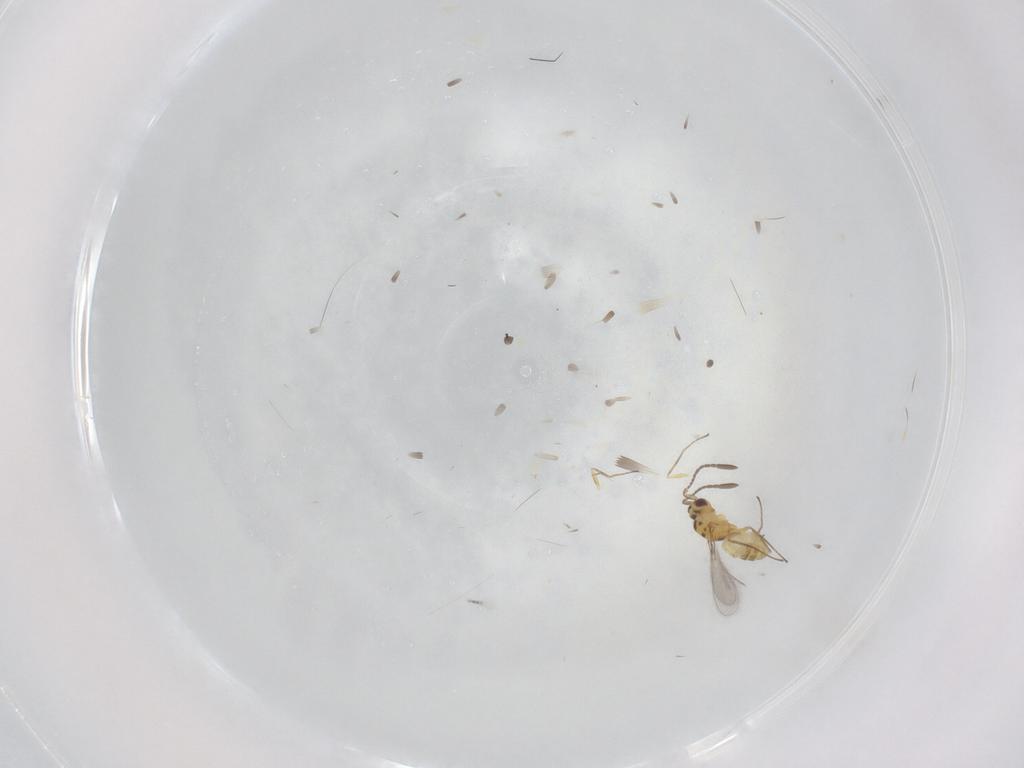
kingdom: Animalia
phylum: Arthropoda
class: Insecta
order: Hymenoptera
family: Mymaridae
